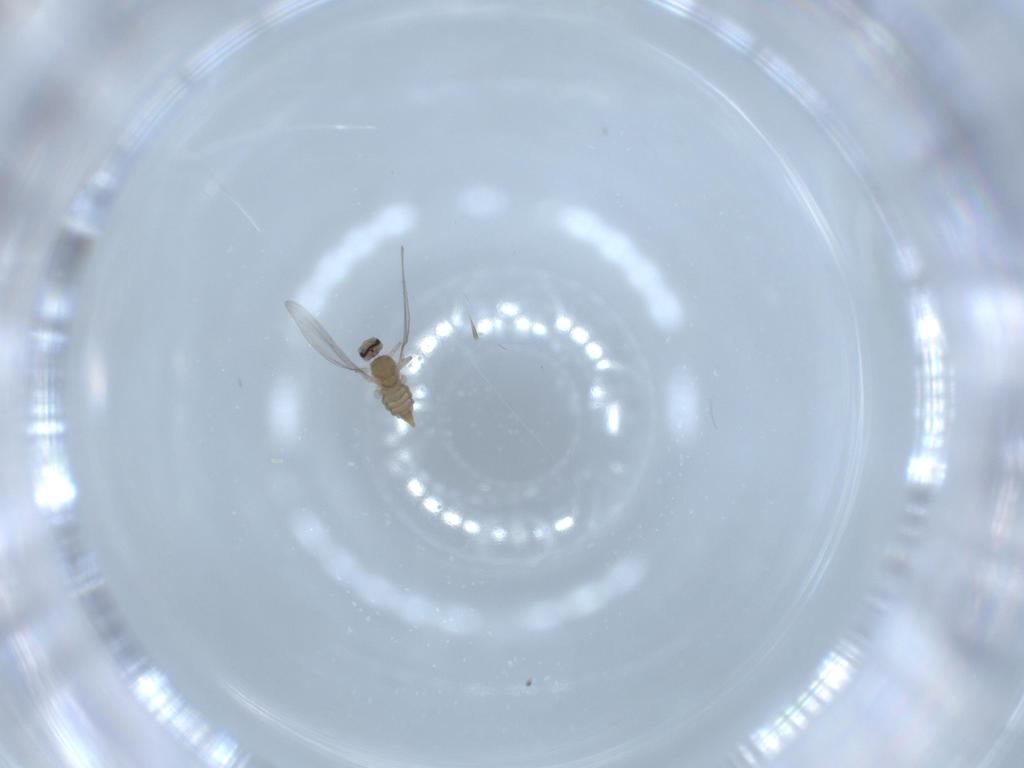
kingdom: Animalia
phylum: Arthropoda
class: Insecta
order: Diptera
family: Cecidomyiidae
